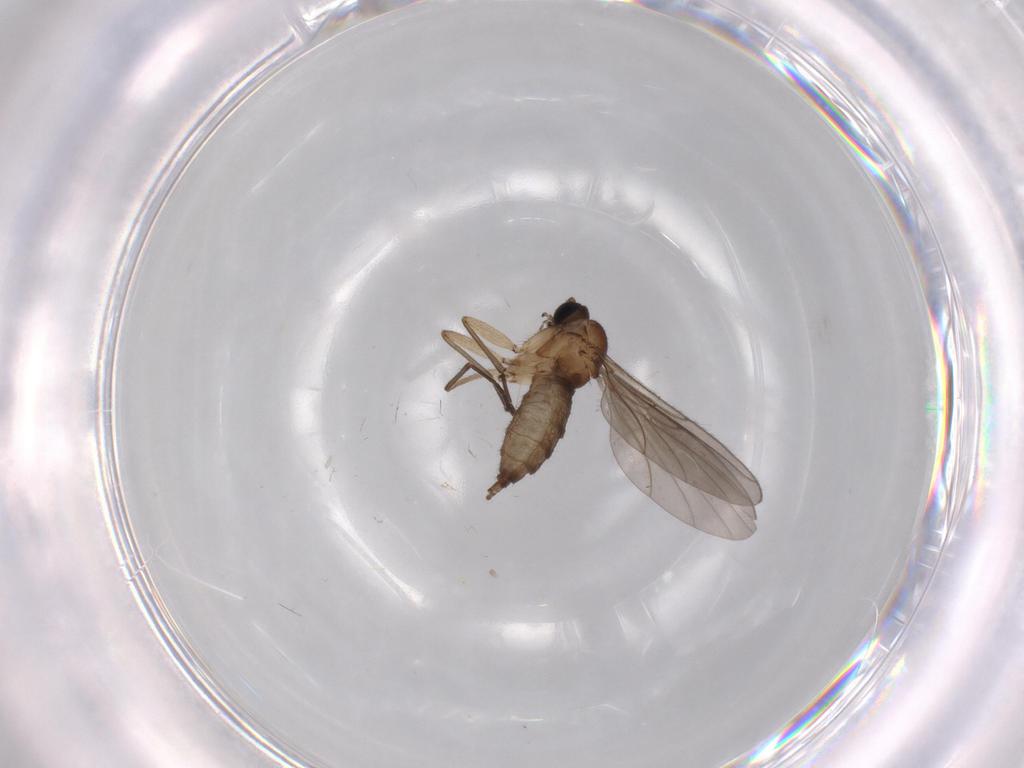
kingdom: Animalia
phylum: Arthropoda
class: Insecta
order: Diptera
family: Sciaridae
